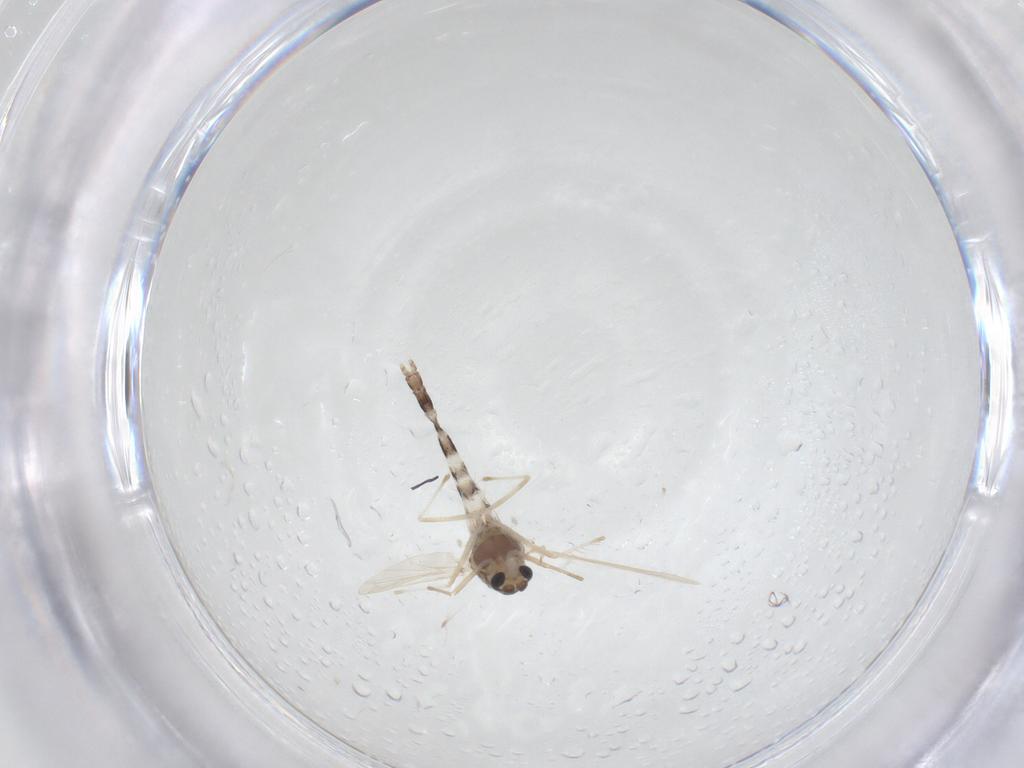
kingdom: Animalia
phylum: Arthropoda
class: Insecta
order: Diptera
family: Chironomidae
